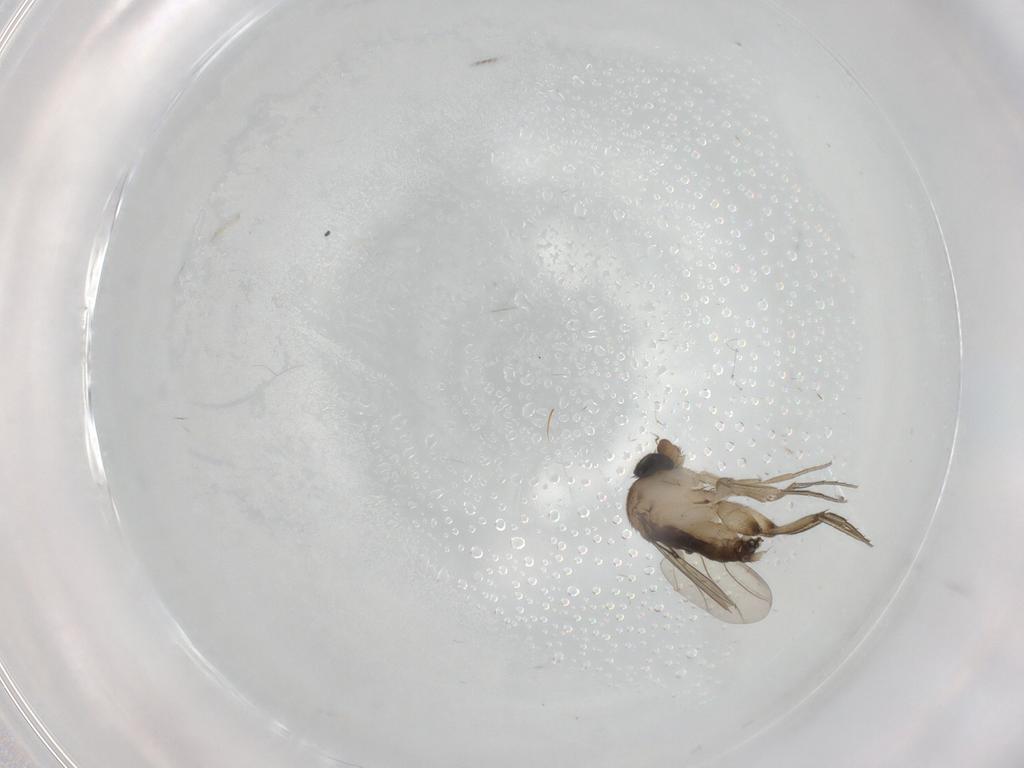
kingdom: Animalia
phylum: Arthropoda
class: Insecta
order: Diptera
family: Phoridae
